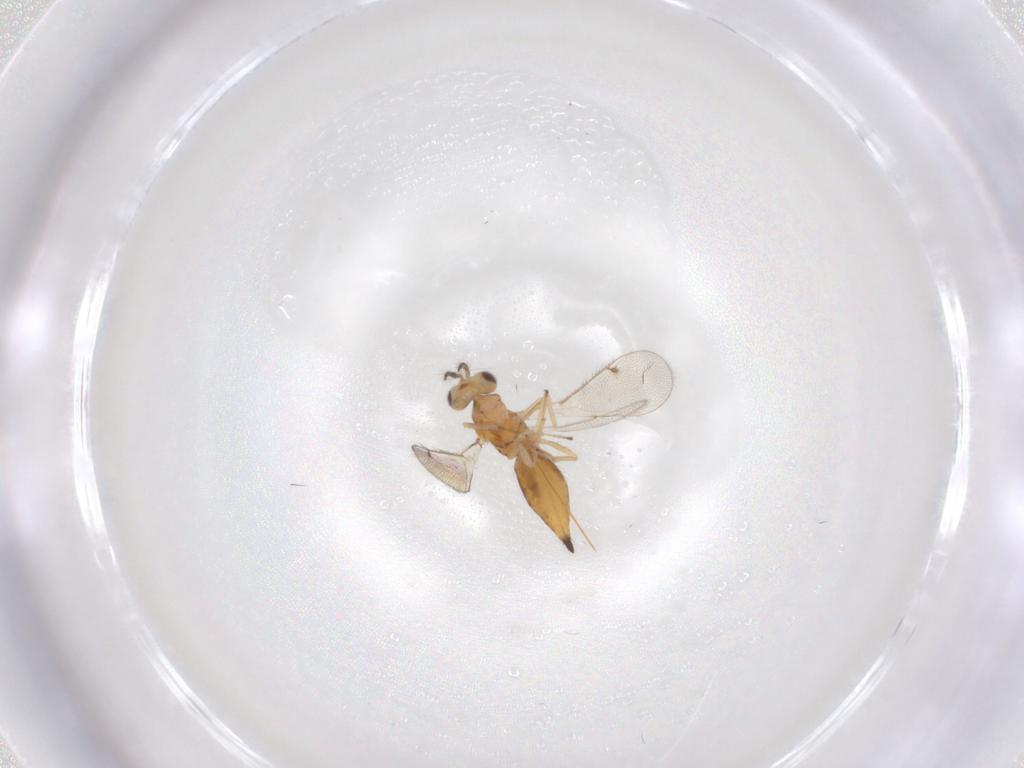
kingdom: Animalia
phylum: Arthropoda
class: Insecta
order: Hymenoptera
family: Eulophidae
